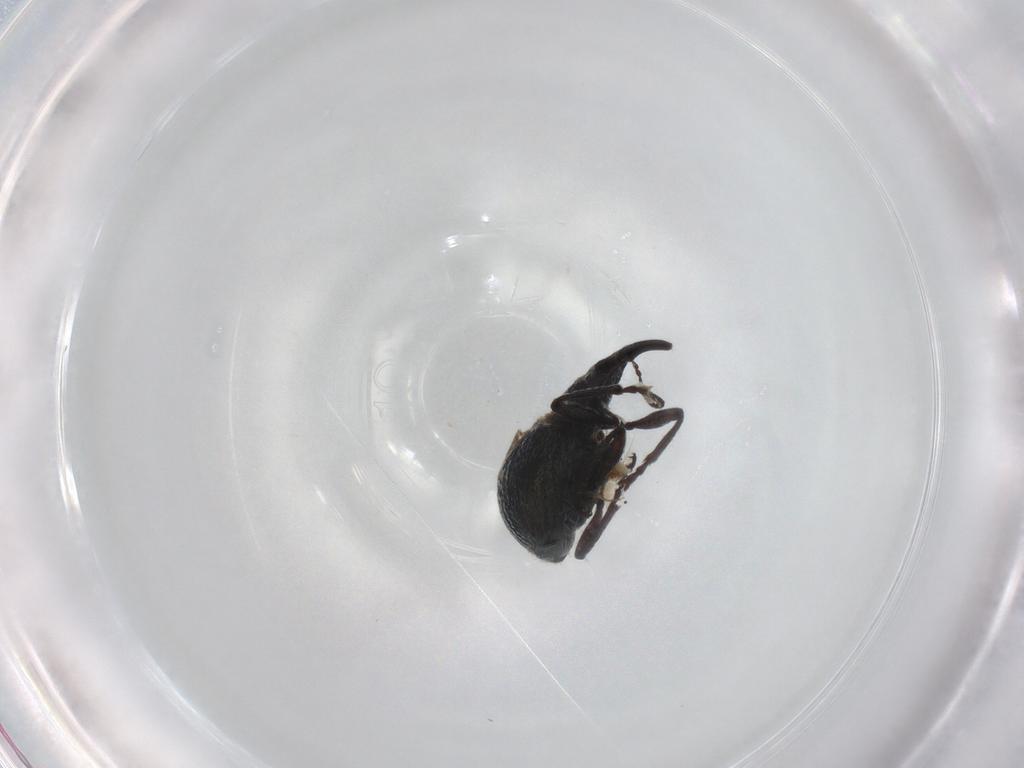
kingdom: Animalia
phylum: Arthropoda
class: Insecta
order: Coleoptera
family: Brentidae
